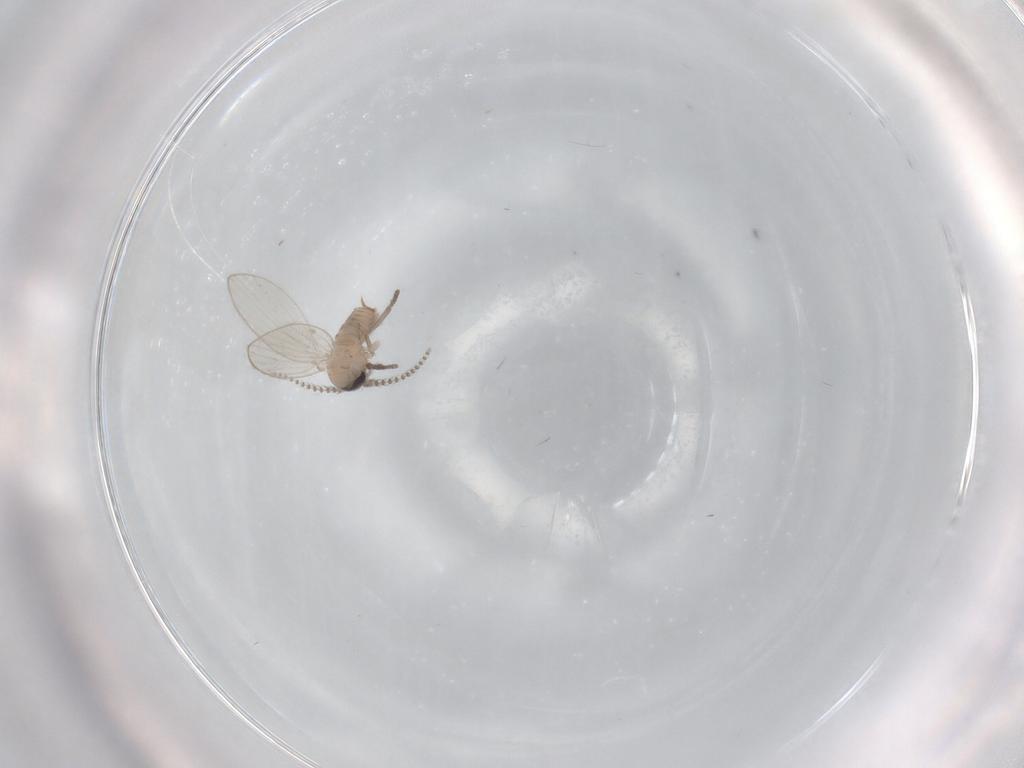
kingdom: Animalia
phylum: Arthropoda
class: Insecta
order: Diptera
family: Psychodidae
